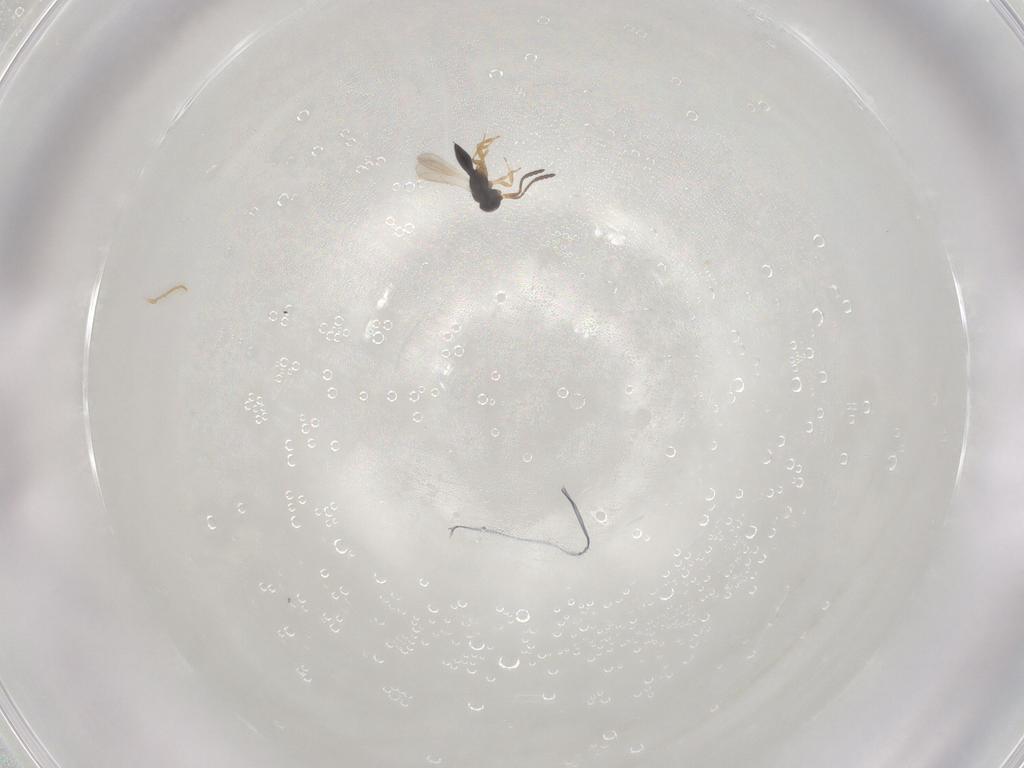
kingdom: Animalia
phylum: Arthropoda
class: Insecta
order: Hymenoptera
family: Scelionidae
